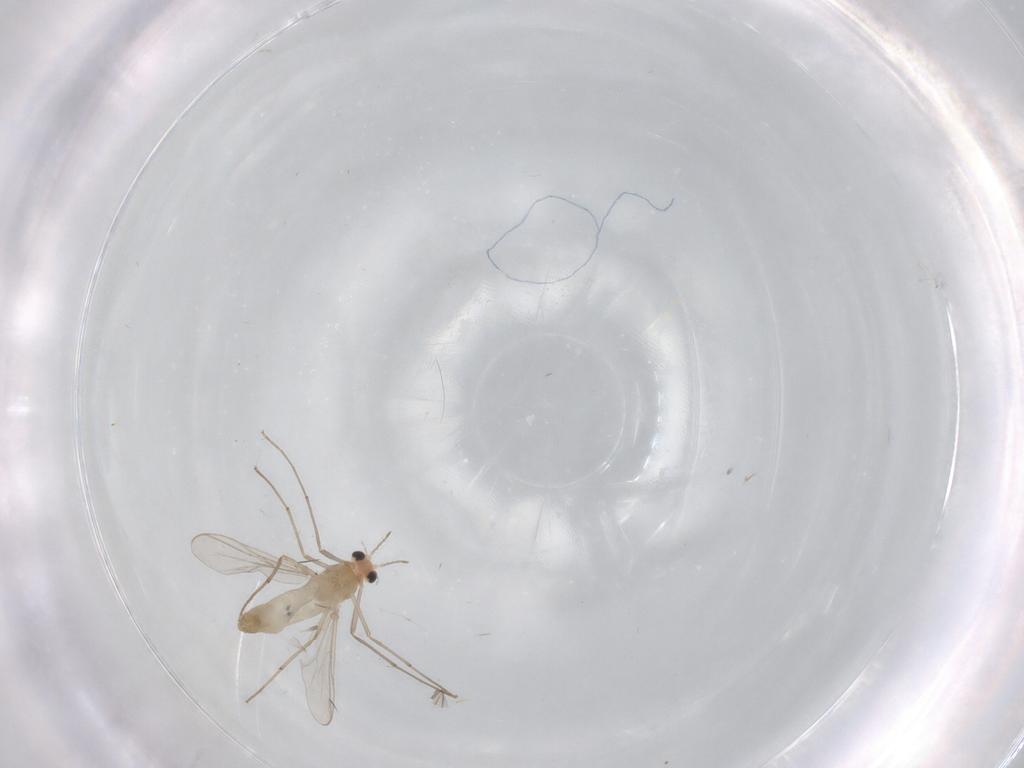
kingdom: Animalia
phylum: Arthropoda
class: Insecta
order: Diptera
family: Chironomidae
